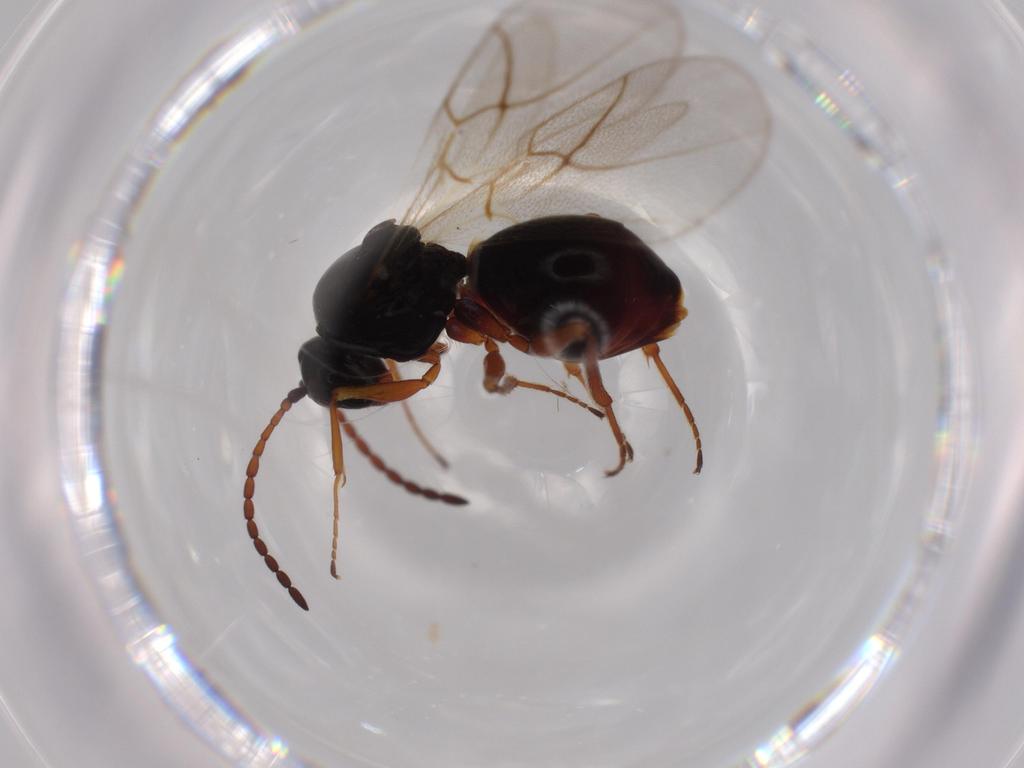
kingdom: Animalia
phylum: Arthropoda
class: Insecta
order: Hymenoptera
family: Figitidae
